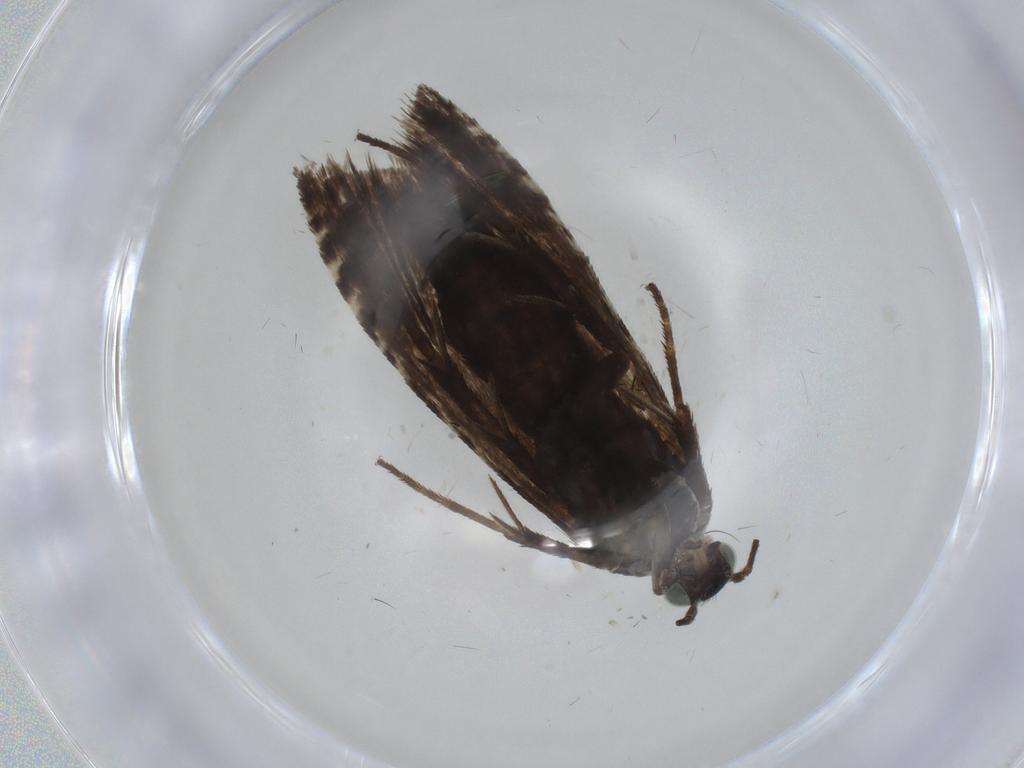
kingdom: Animalia
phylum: Arthropoda
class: Insecta
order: Lepidoptera
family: Tortricidae
